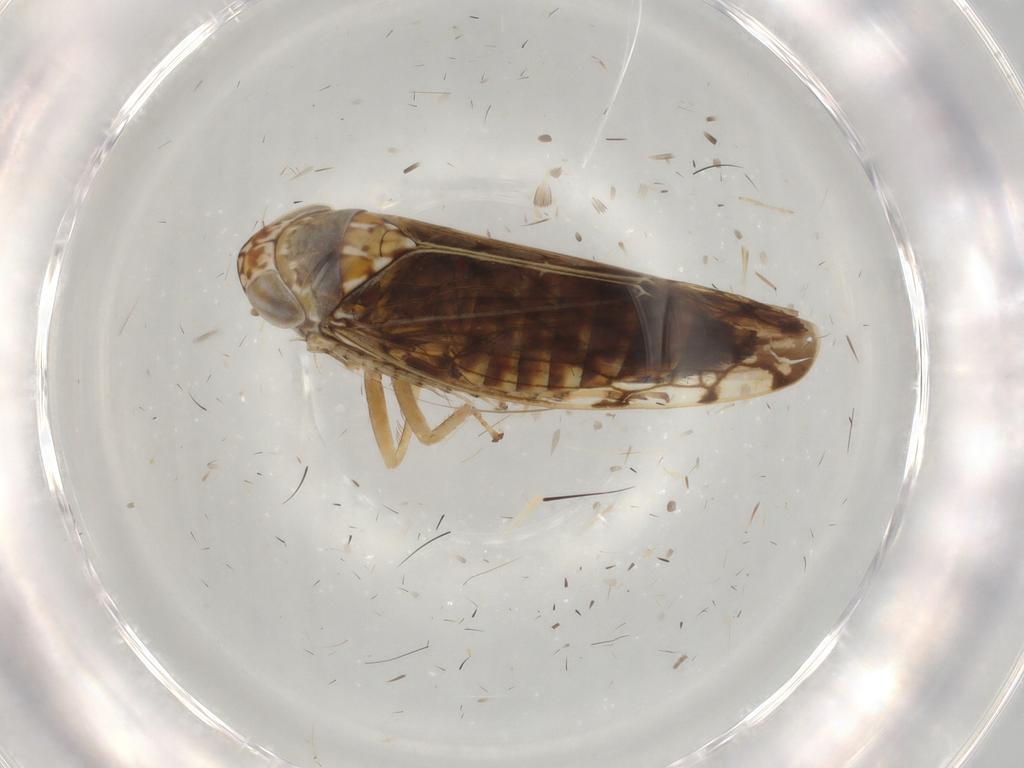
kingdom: Animalia
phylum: Arthropoda
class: Insecta
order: Hemiptera
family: Cicadellidae
